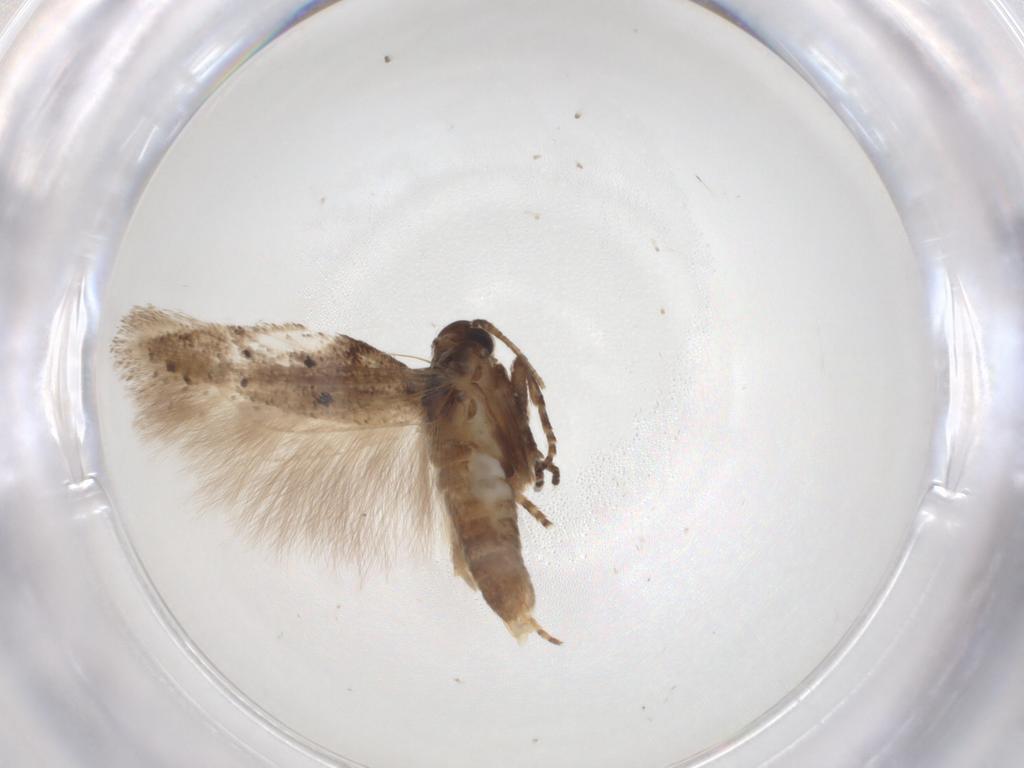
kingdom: Animalia
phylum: Arthropoda
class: Insecta
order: Lepidoptera
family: Gelechiidae
